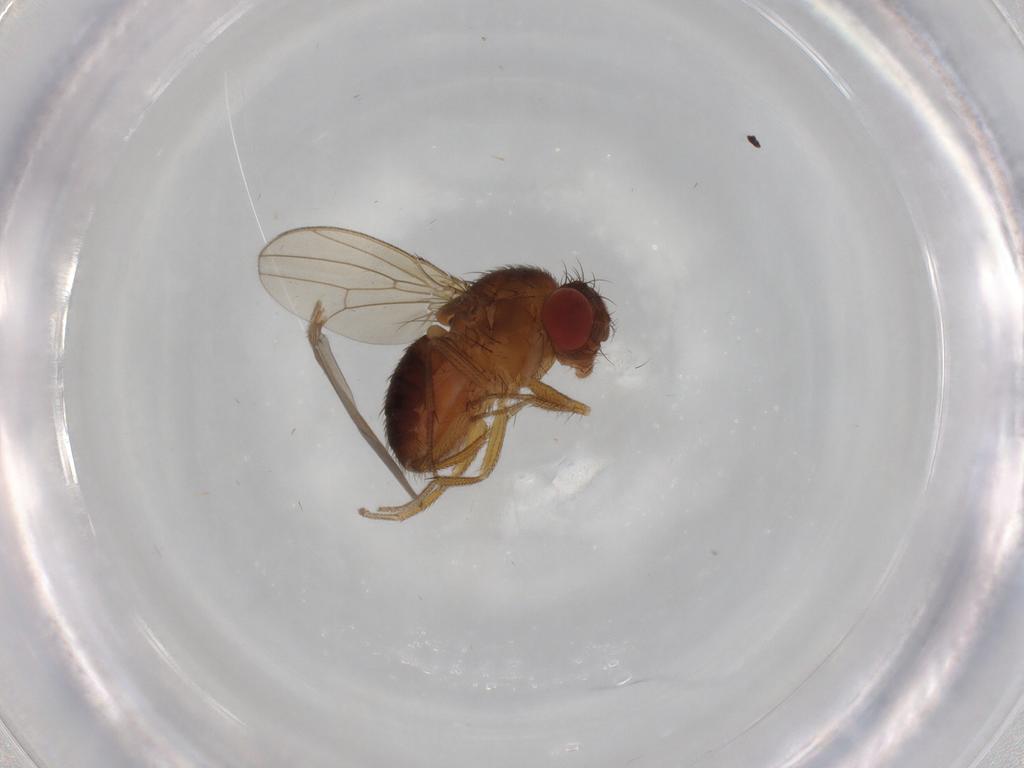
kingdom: Animalia
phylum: Arthropoda
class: Insecta
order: Diptera
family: Drosophilidae
